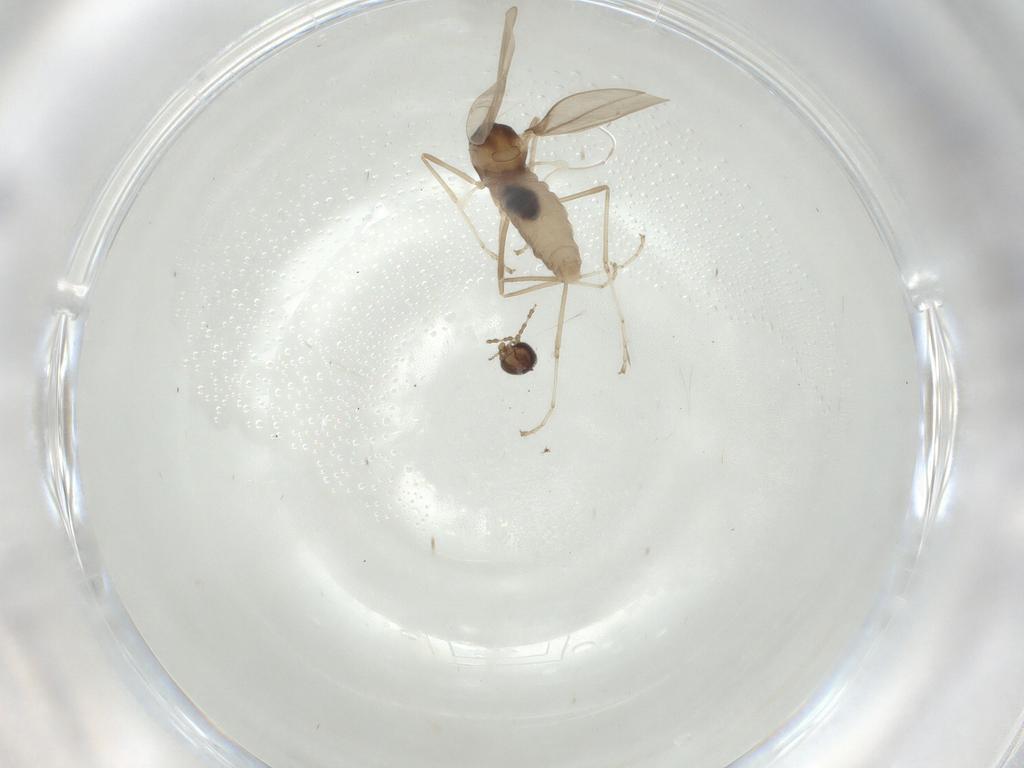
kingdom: Animalia
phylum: Arthropoda
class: Insecta
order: Diptera
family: Cecidomyiidae
